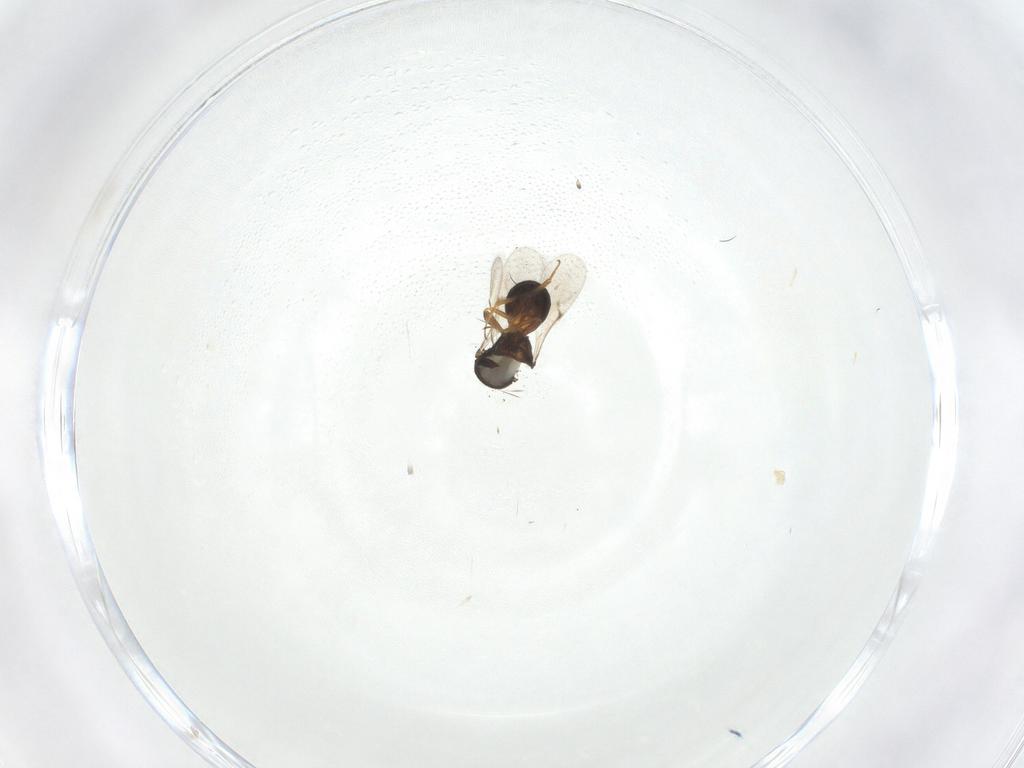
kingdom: Animalia
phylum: Arthropoda
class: Insecta
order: Hymenoptera
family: Scelionidae
